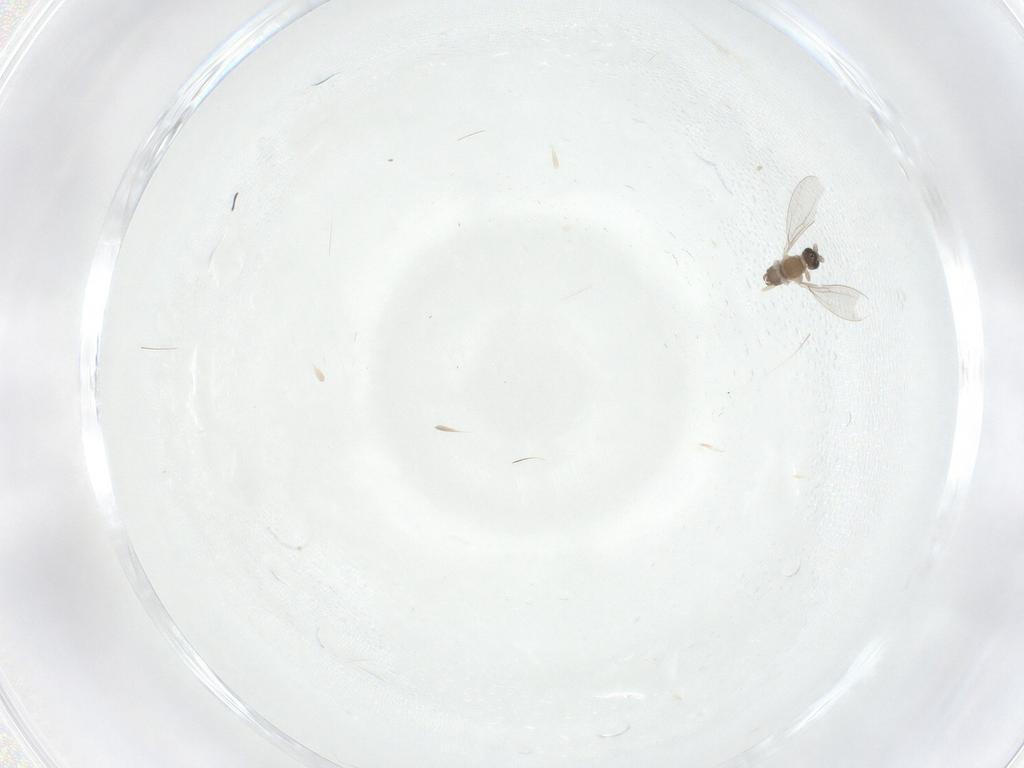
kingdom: Animalia
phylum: Arthropoda
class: Insecta
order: Diptera
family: Cecidomyiidae
